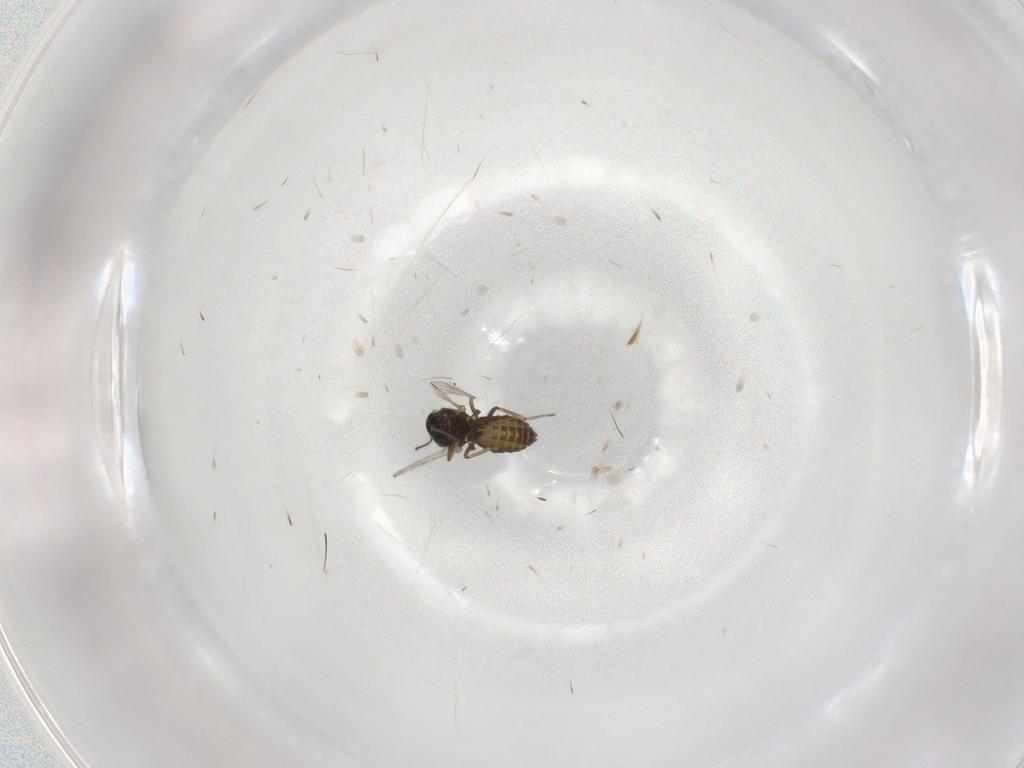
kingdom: Animalia
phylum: Arthropoda
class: Insecta
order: Diptera
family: Ceratopogonidae
